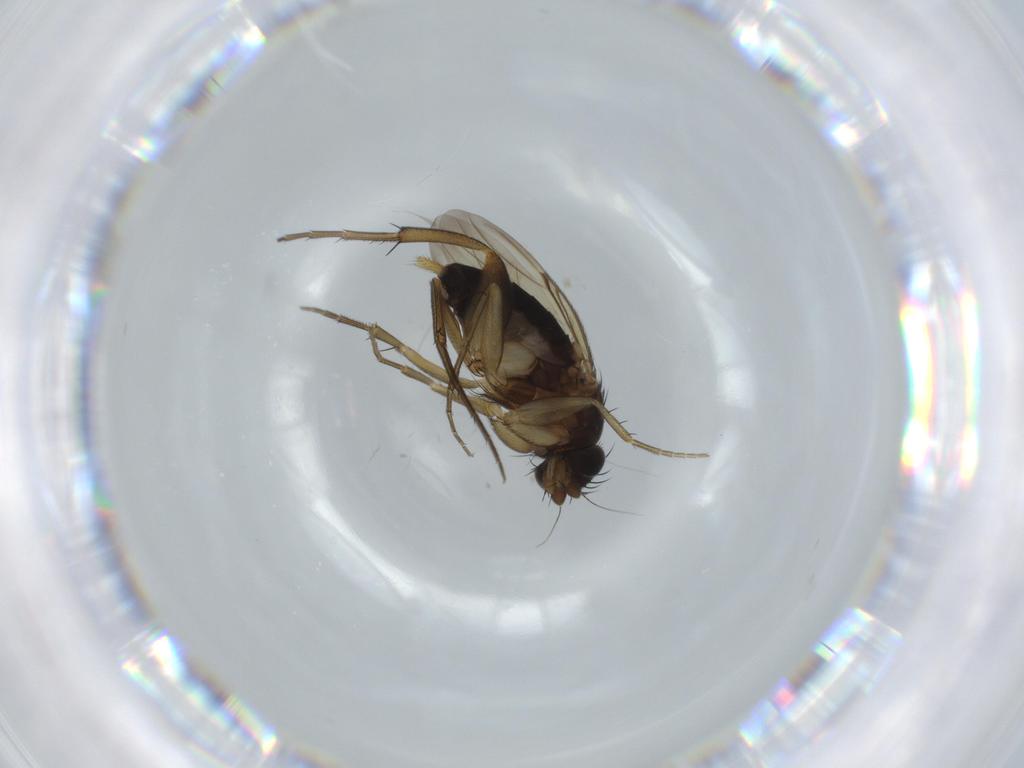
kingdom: Animalia
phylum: Arthropoda
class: Insecta
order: Diptera
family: Phoridae
